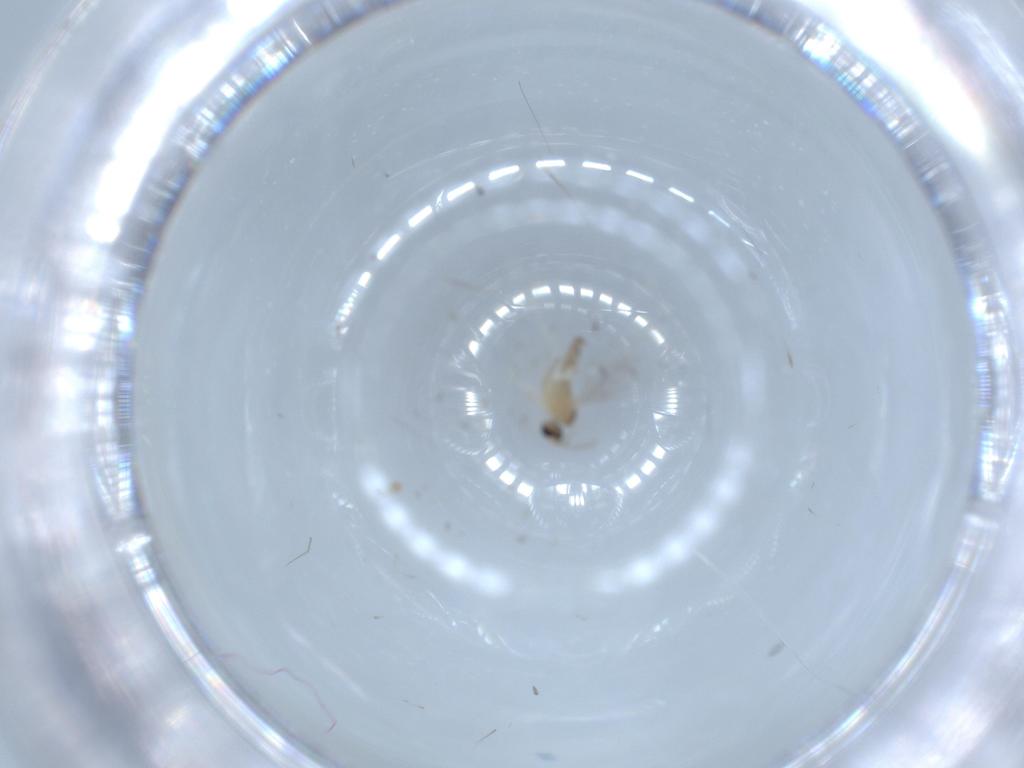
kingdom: Animalia
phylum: Arthropoda
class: Insecta
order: Diptera
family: Cecidomyiidae
